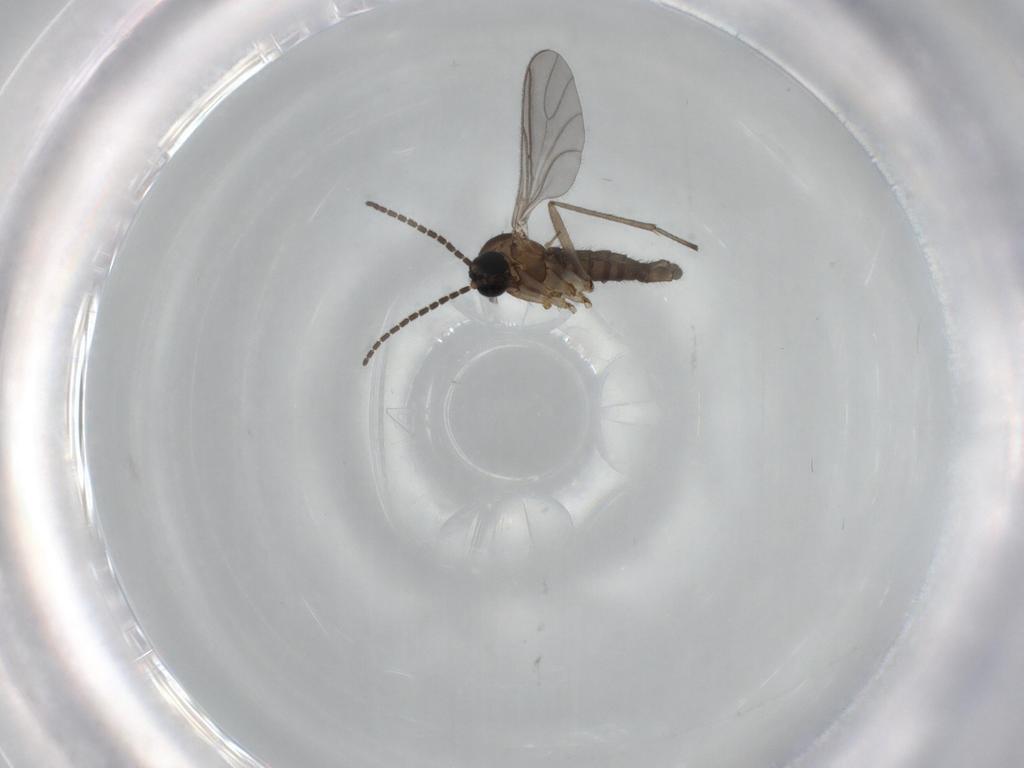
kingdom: Animalia
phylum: Arthropoda
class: Insecta
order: Diptera
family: Sciaridae
